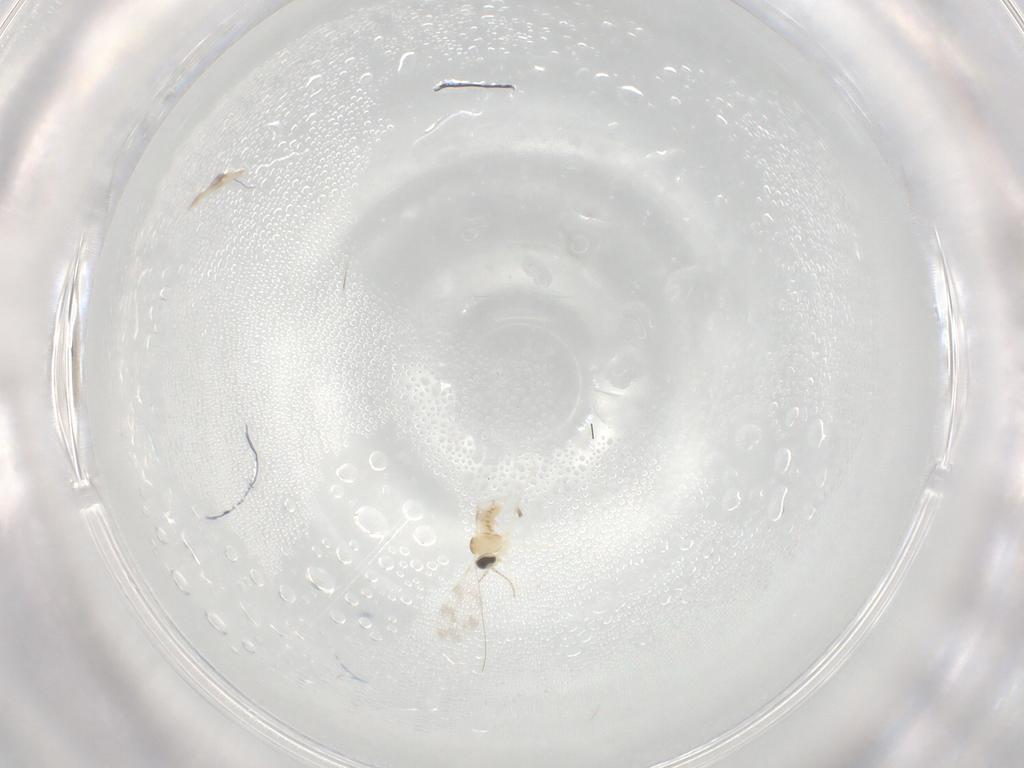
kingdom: Animalia
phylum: Arthropoda
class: Insecta
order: Diptera
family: Cecidomyiidae
